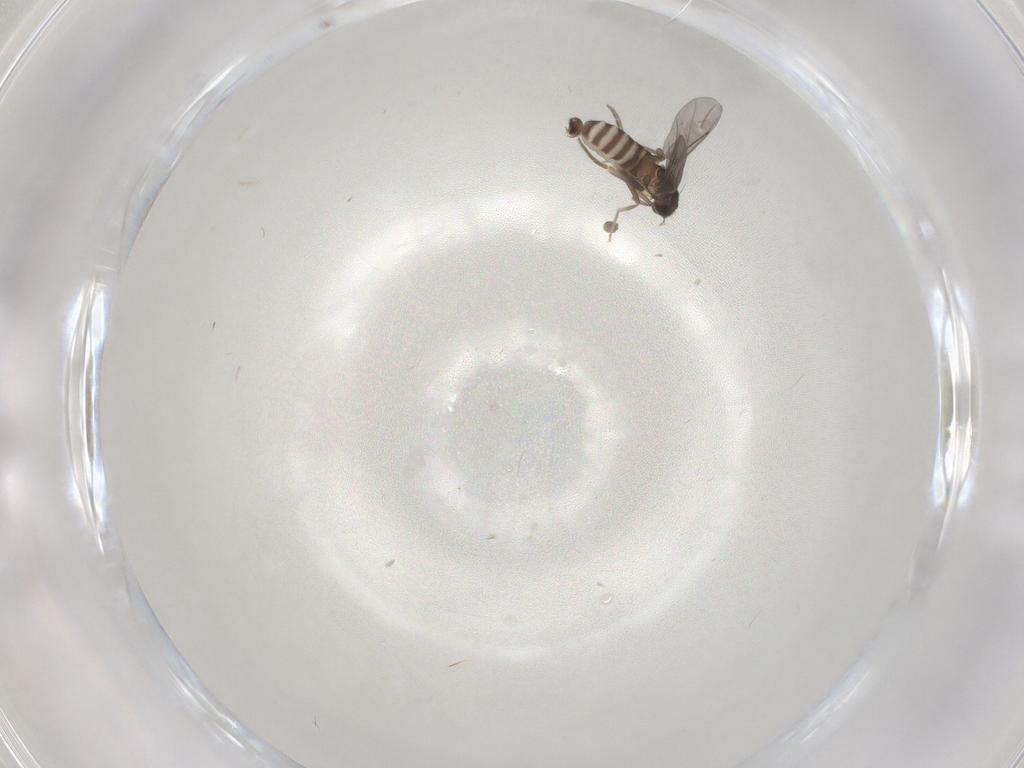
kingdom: Animalia
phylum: Arthropoda
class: Insecta
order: Diptera
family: Phoridae
